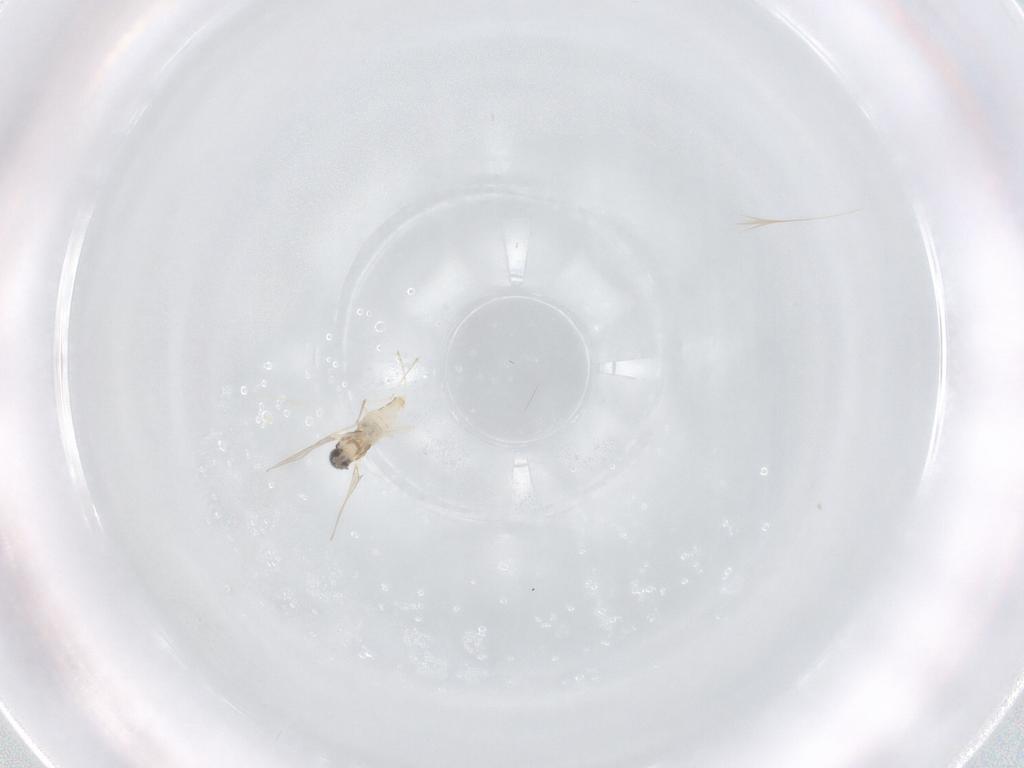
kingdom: Animalia
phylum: Arthropoda
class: Insecta
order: Diptera
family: Cecidomyiidae
